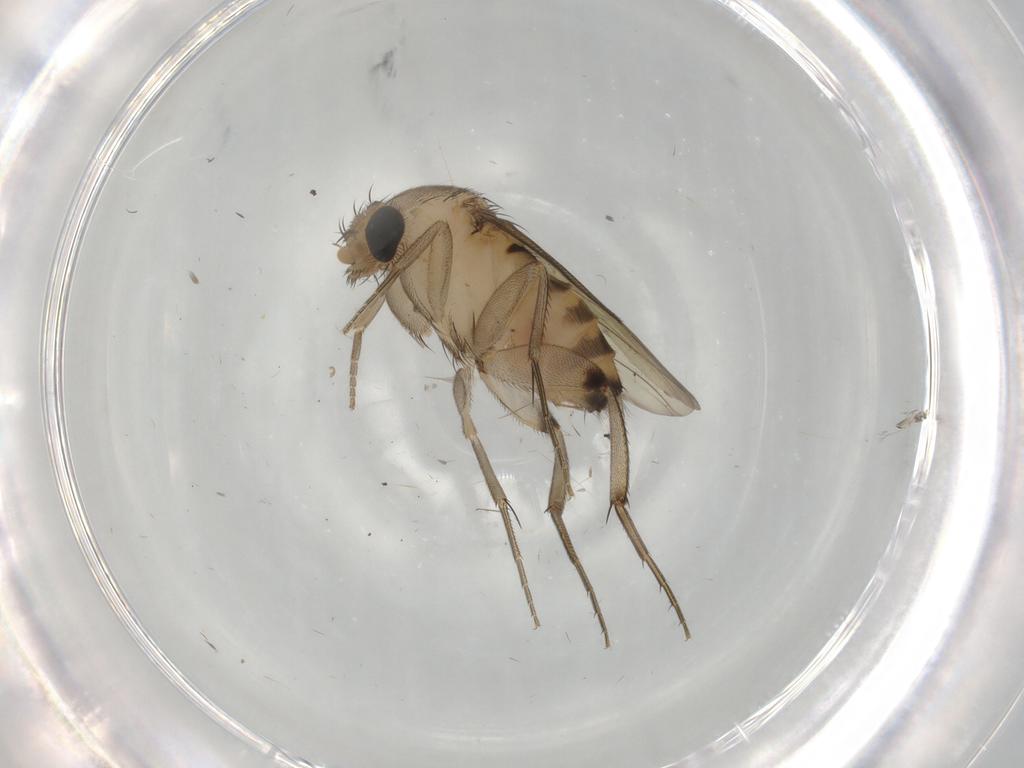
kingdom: Animalia
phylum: Arthropoda
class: Insecta
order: Diptera
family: Phoridae
